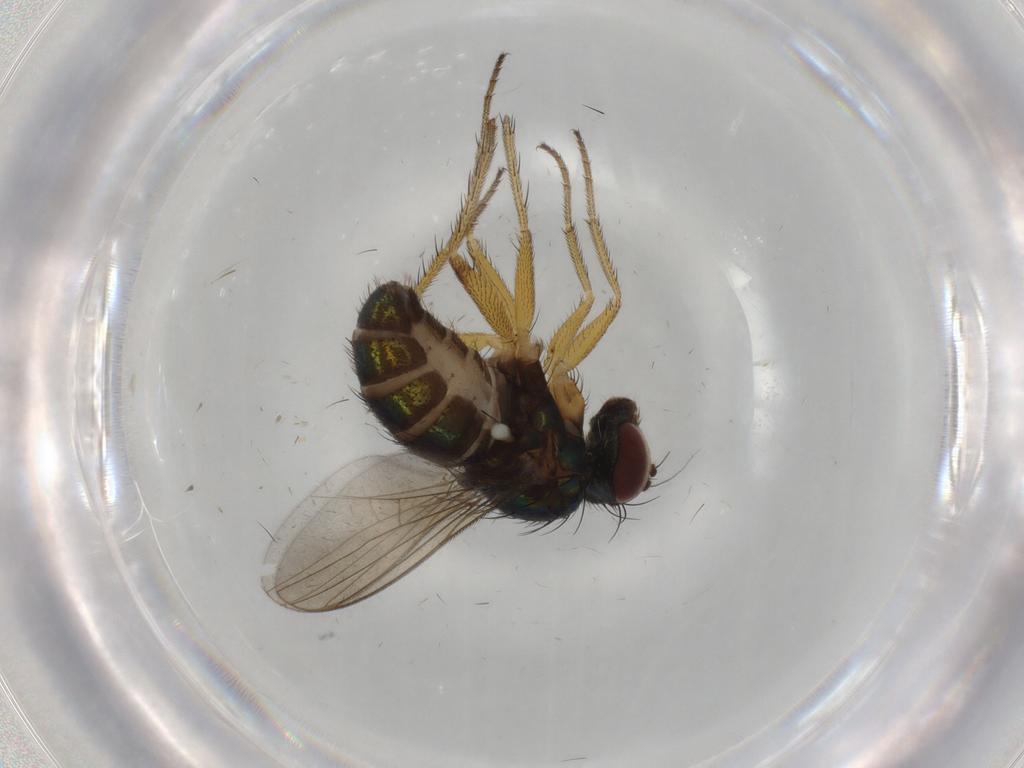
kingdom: Animalia
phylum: Arthropoda
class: Insecta
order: Diptera
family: Dolichopodidae
